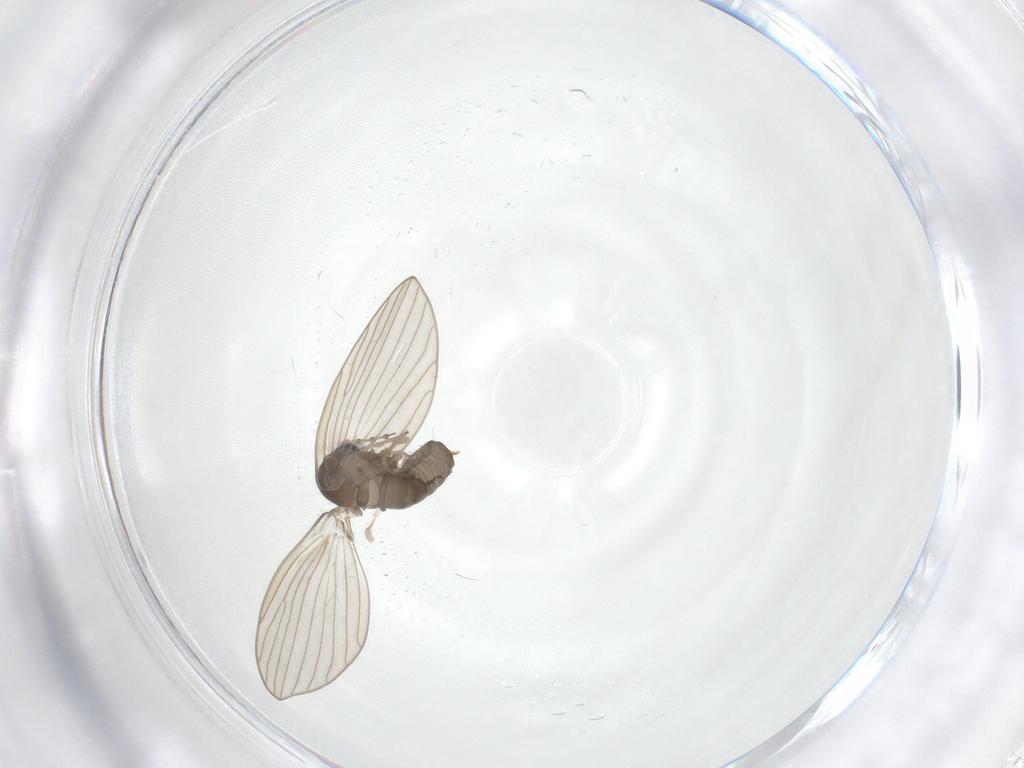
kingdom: Animalia
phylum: Arthropoda
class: Insecta
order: Diptera
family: Psychodidae
